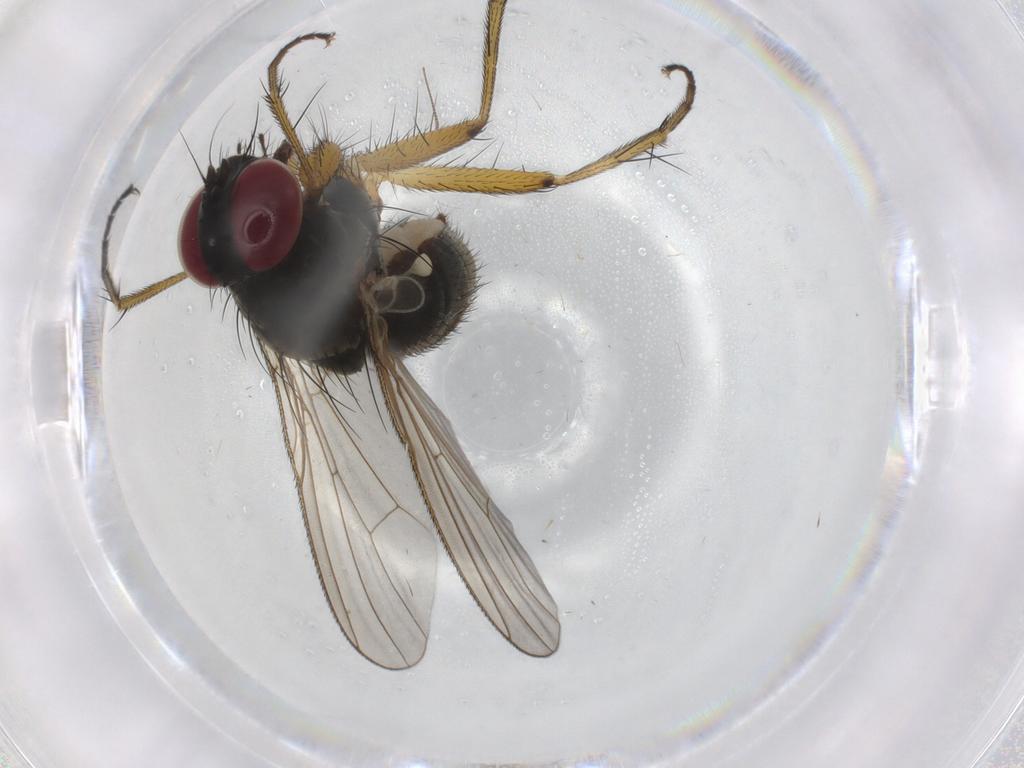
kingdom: Animalia
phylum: Arthropoda
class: Insecta
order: Diptera
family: Muscidae
